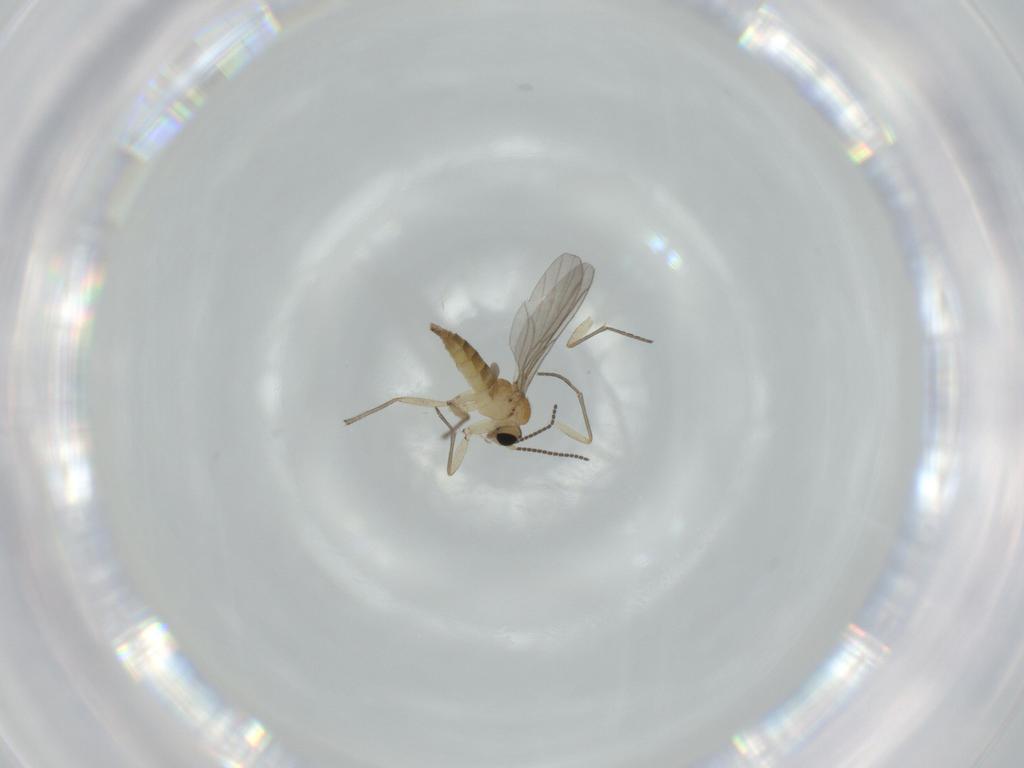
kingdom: Animalia
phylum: Arthropoda
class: Insecta
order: Diptera
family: Sciaridae
